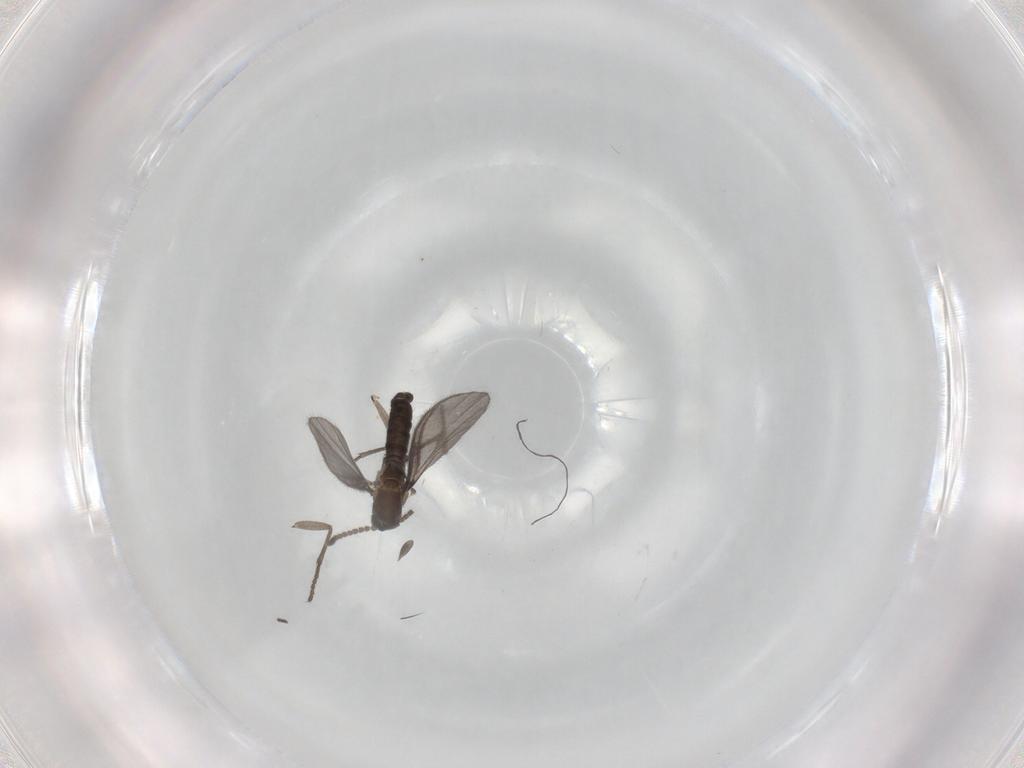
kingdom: Animalia
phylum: Arthropoda
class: Insecta
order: Diptera
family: Sciaridae
